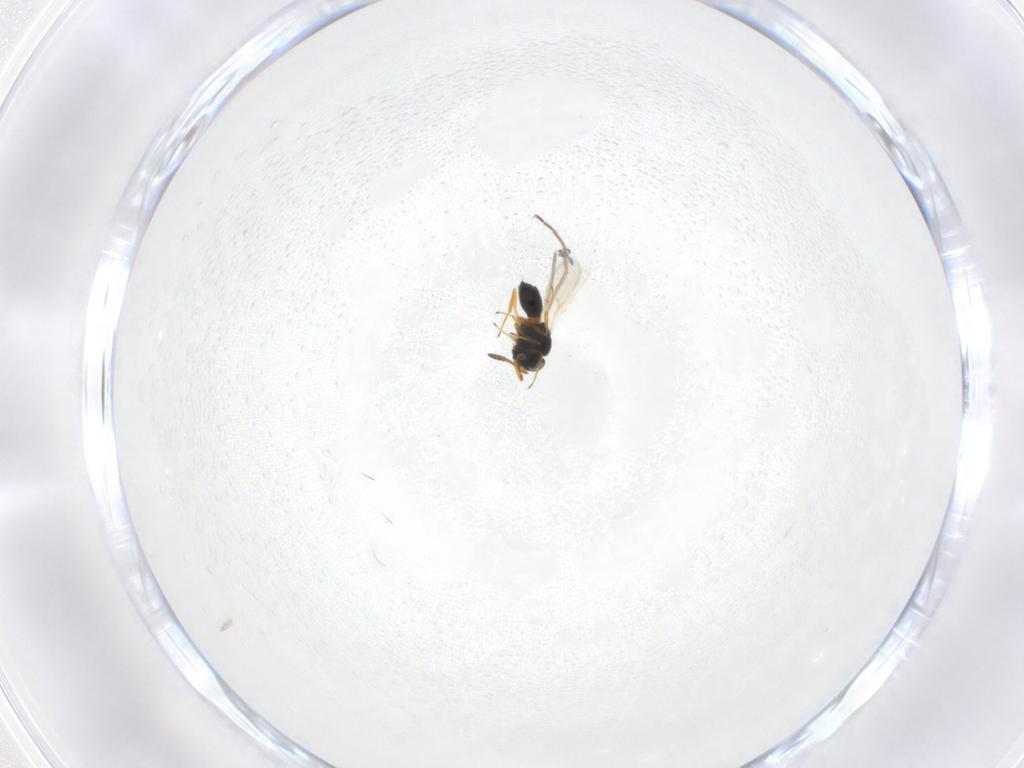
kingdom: Animalia
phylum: Arthropoda
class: Insecta
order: Hymenoptera
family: Scelionidae
